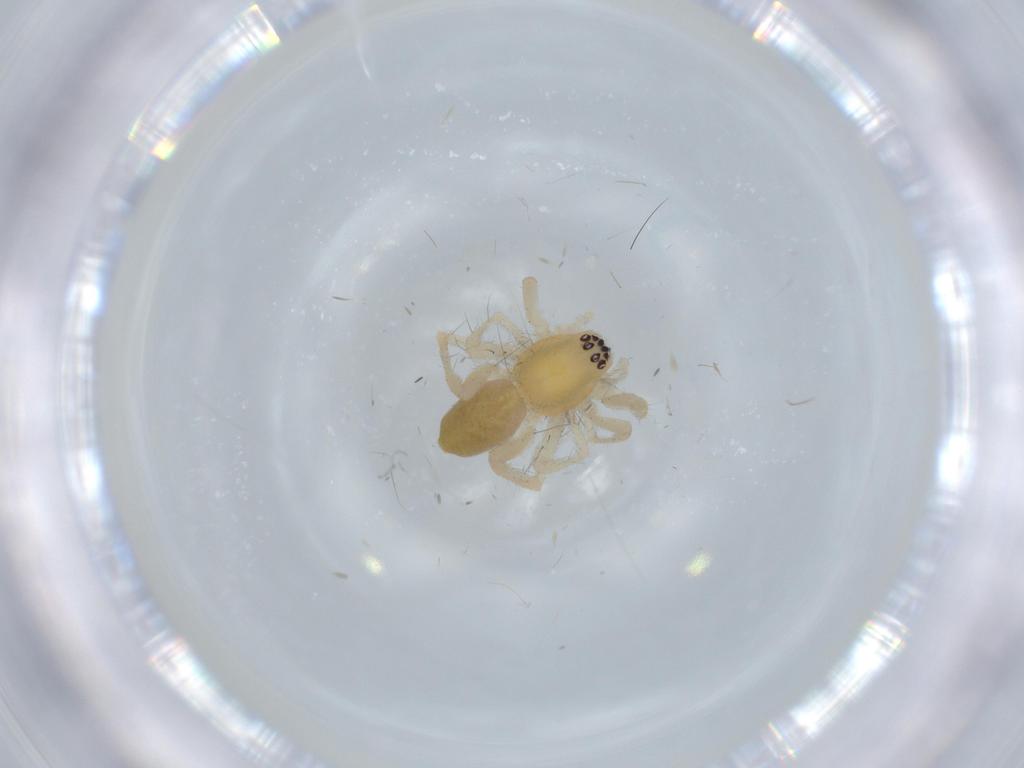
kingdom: Animalia
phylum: Arthropoda
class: Arachnida
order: Araneae
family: Anyphaenidae
